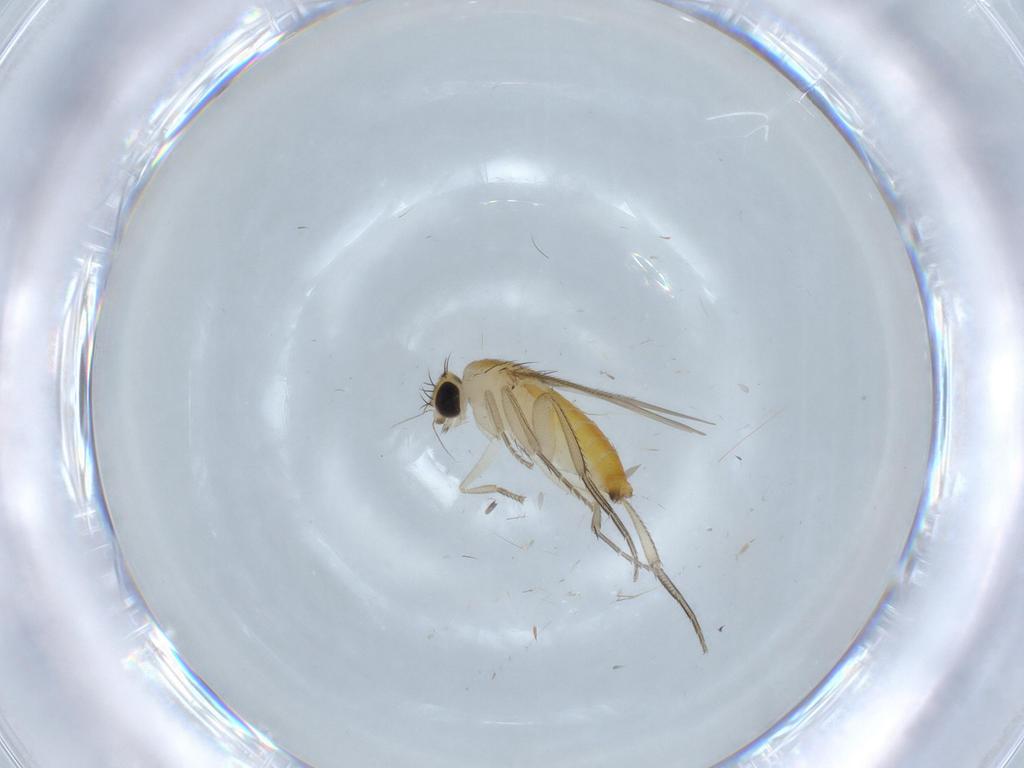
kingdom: Animalia
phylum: Arthropoda
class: Insecta
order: Diptera
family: Phoridae
